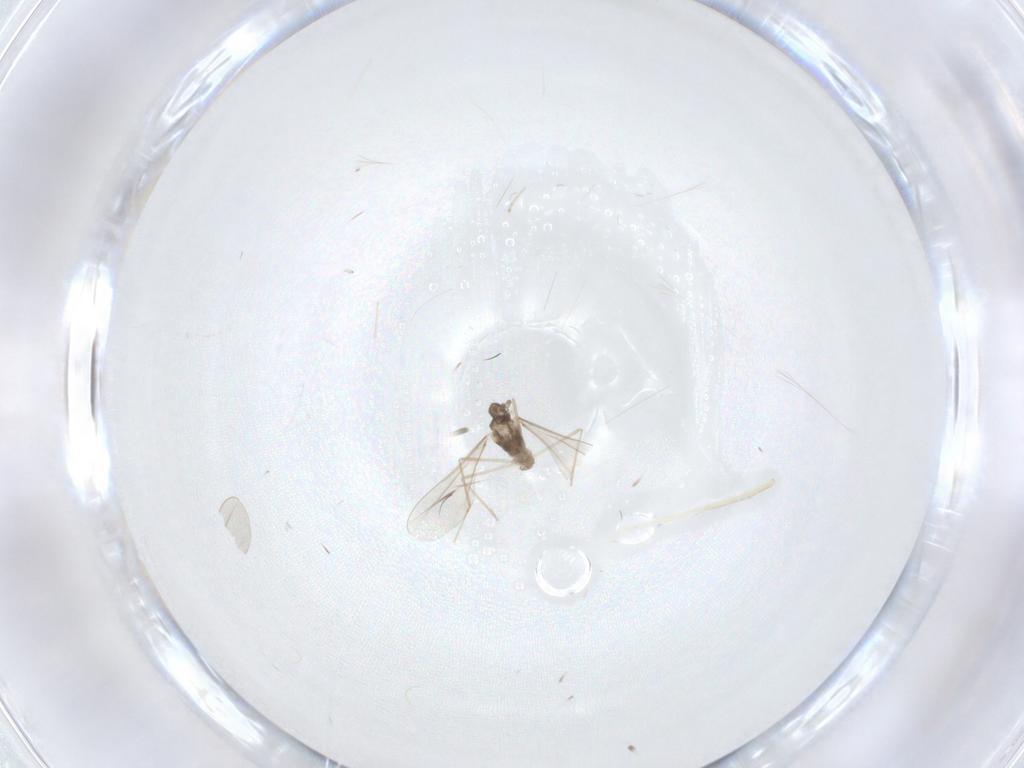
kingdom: Animalia
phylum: Arthropoda
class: Insecta
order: Diptera
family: Cecidomyiidae
